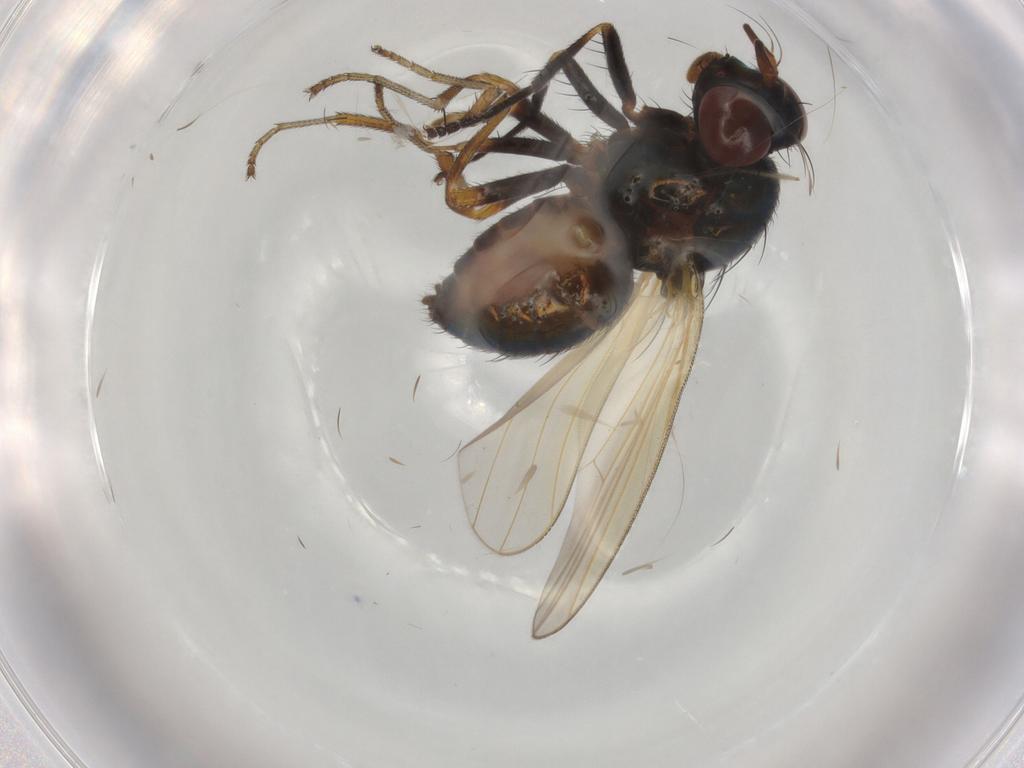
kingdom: Animalia
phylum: Arthropoda
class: Insecta
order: Diptera
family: Lauxaniidae
